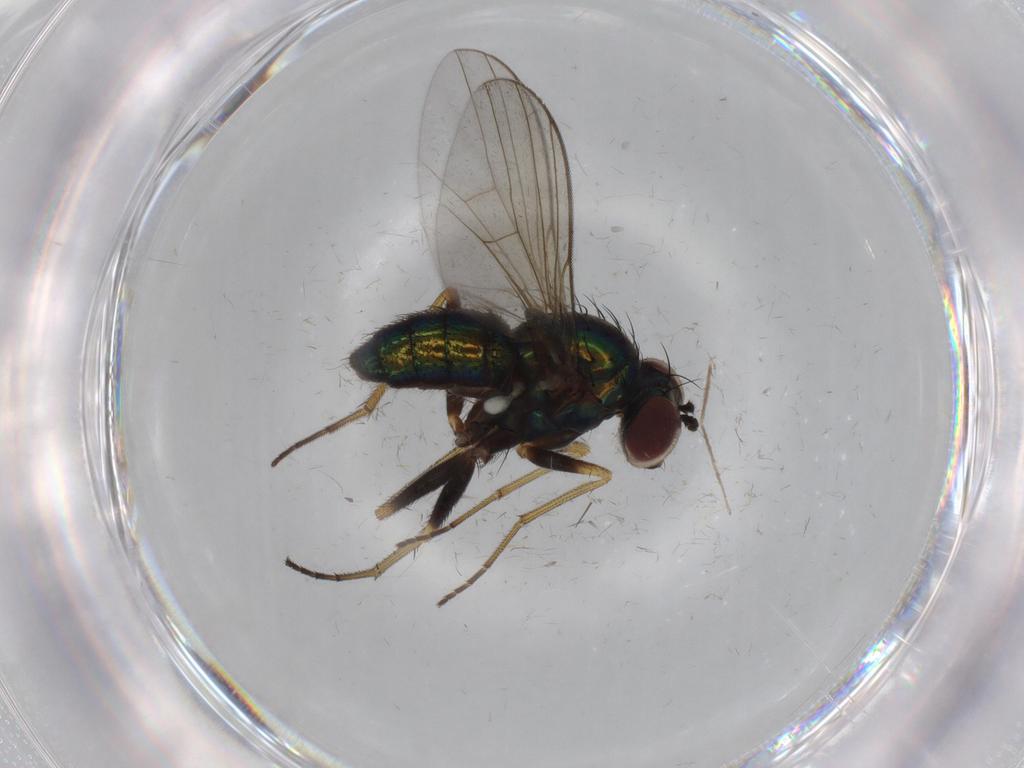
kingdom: Animalia
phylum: Arthropoda
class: Insecta
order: Diptera
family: Dolichopodidae
